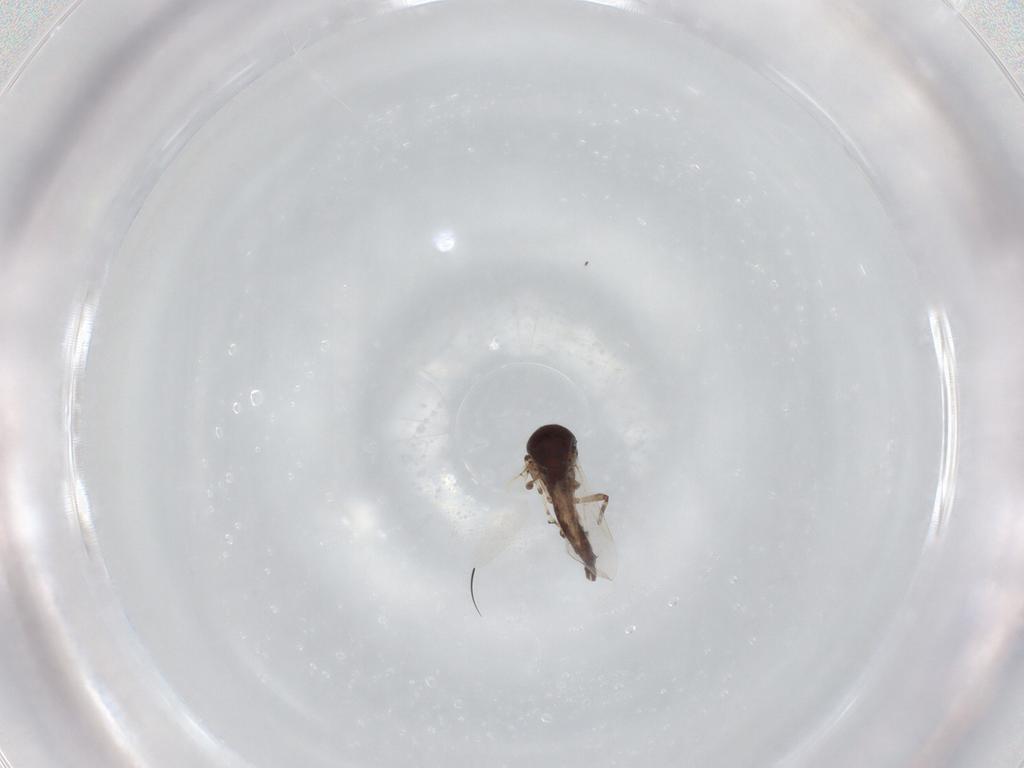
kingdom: Animalia
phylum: Arthropoda
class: Insecta
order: Diptera
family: Ceratopogonidae
